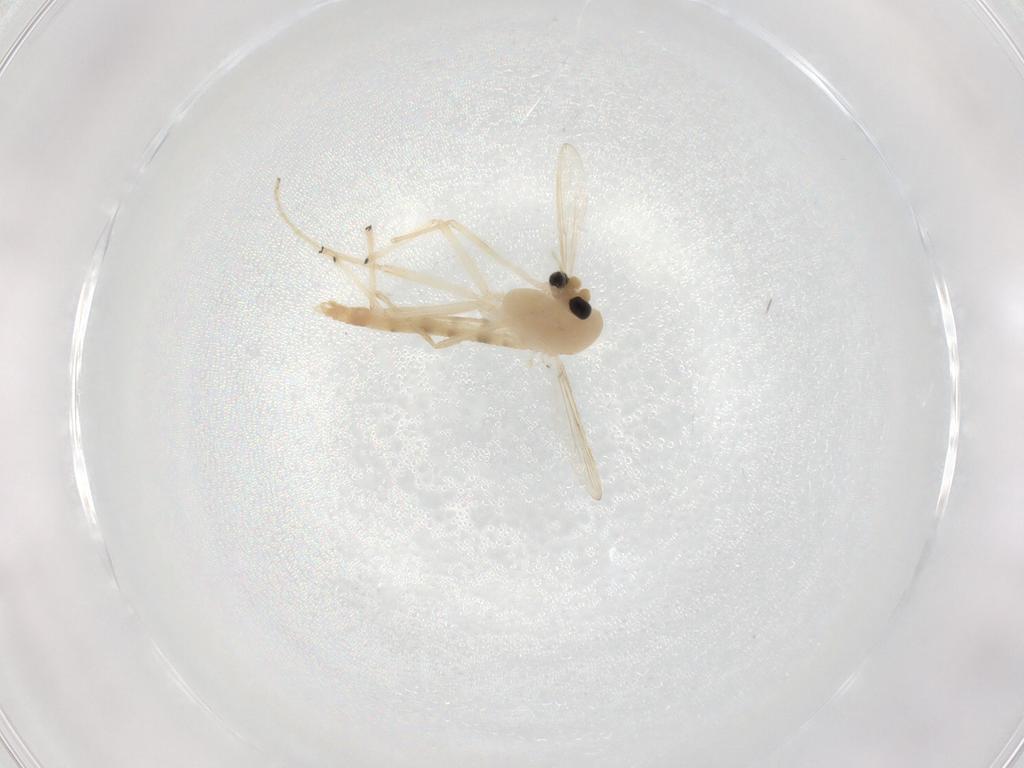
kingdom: Animalia
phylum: Arthropoda
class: Insecta
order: Diptera
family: Chironomidae
